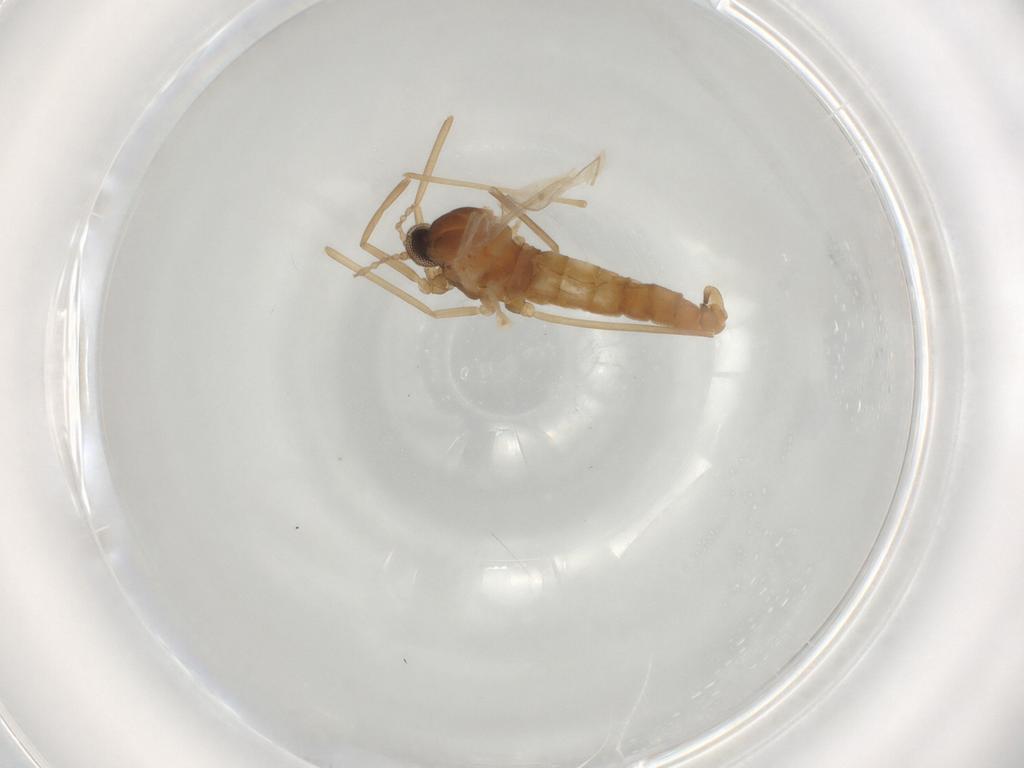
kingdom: Animalia
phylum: Arthropoda
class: Insecta
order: Diptera
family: Cecidomyiidae
